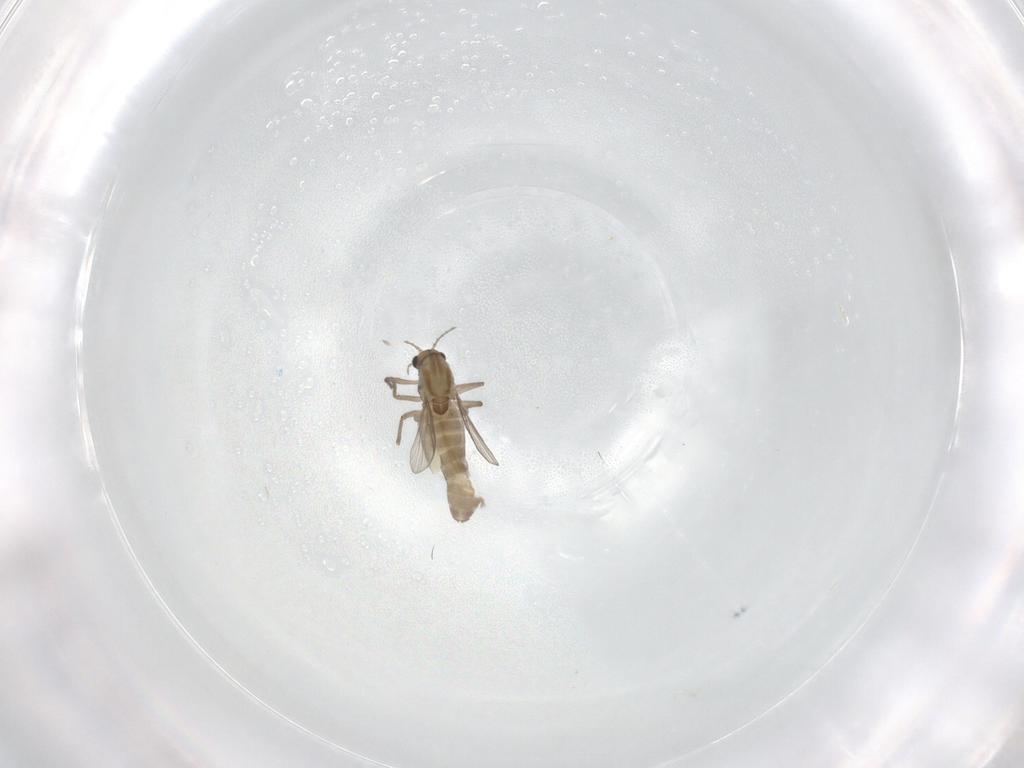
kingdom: Animalia
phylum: Arthropoda
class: Insecta
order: Diptera
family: Chironomidae
